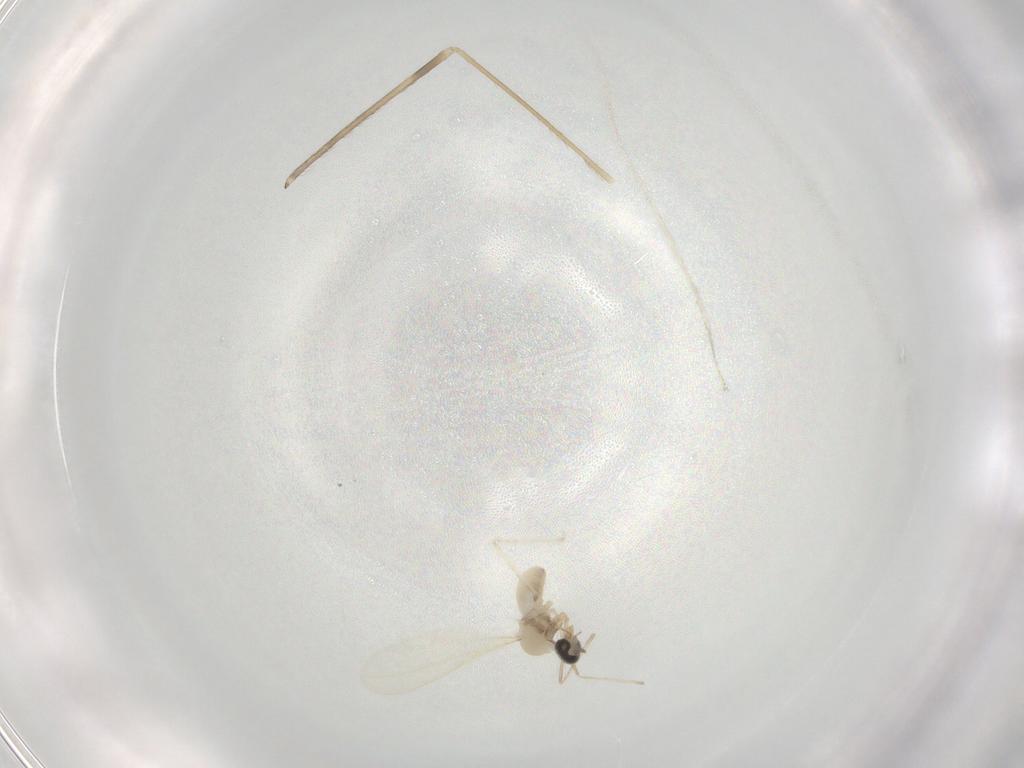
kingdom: Animalia
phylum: Arthropoda
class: Insecta
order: Diptera
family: Cecidomyiidae
